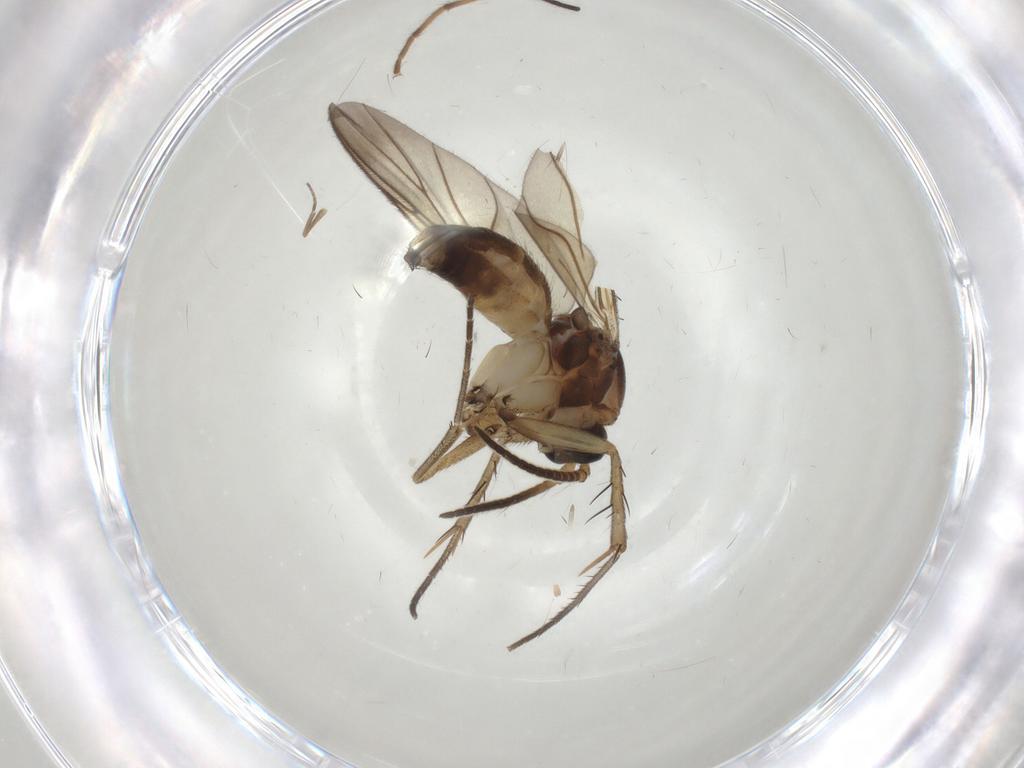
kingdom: Animalia
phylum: Arthropoda
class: Insecta
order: Diptera
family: Mycetophilidae
